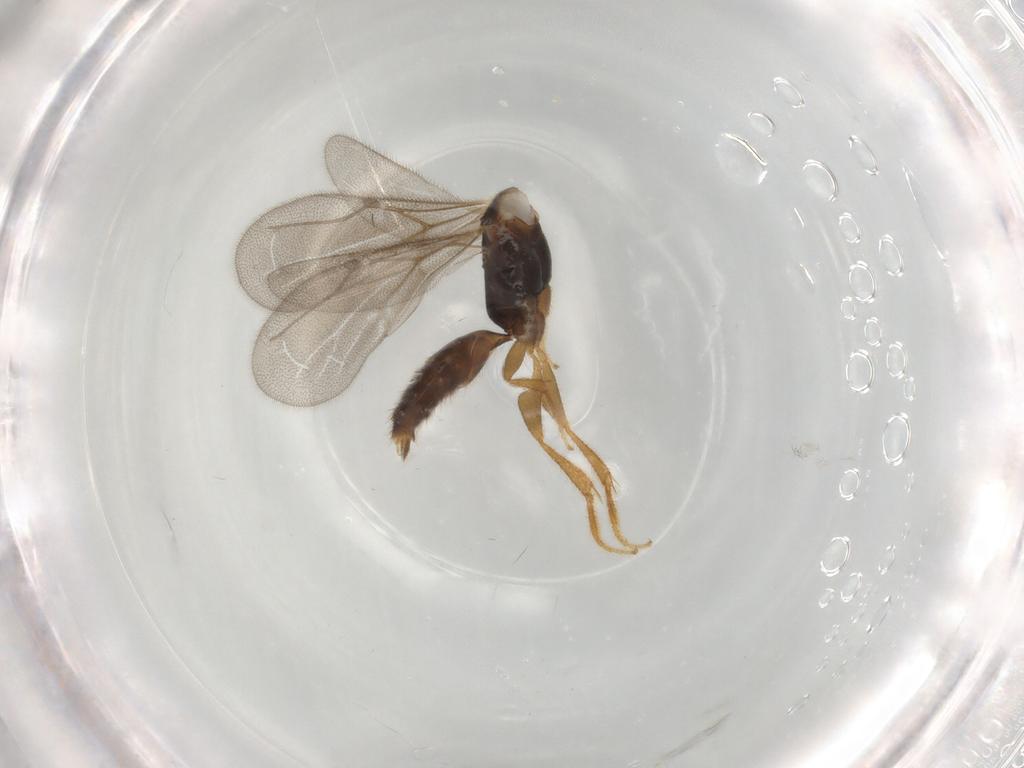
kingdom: Animalia
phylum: Arthropoda
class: Insecta
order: Hymenoptera
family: Bethylidae
